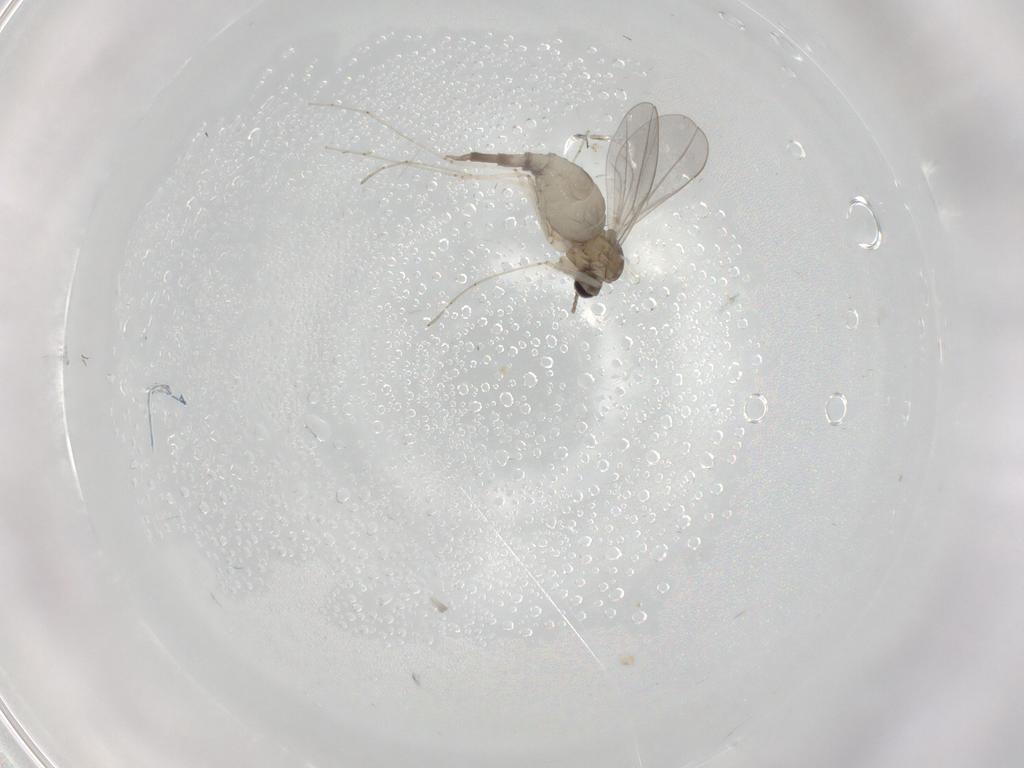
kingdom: Animalia
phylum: Arthropoda
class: Insecta
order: Diptera
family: Cecidomyiidae
